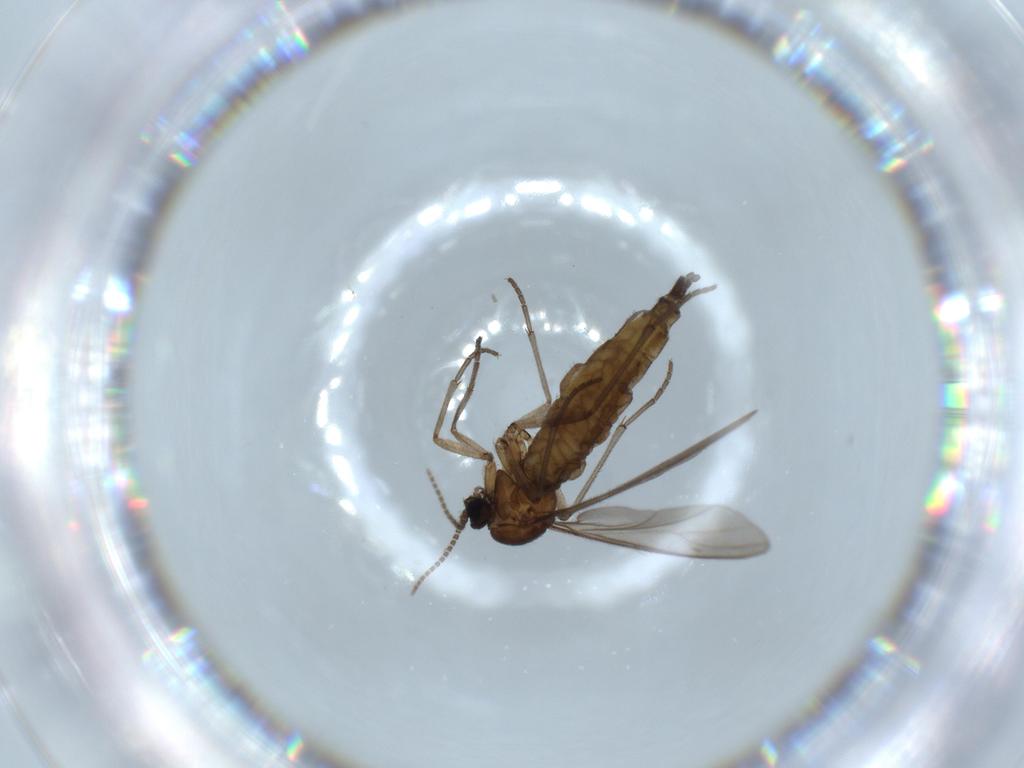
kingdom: Animalia
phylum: Arthropoda
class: Insecta
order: Diptera
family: Sciaridae
